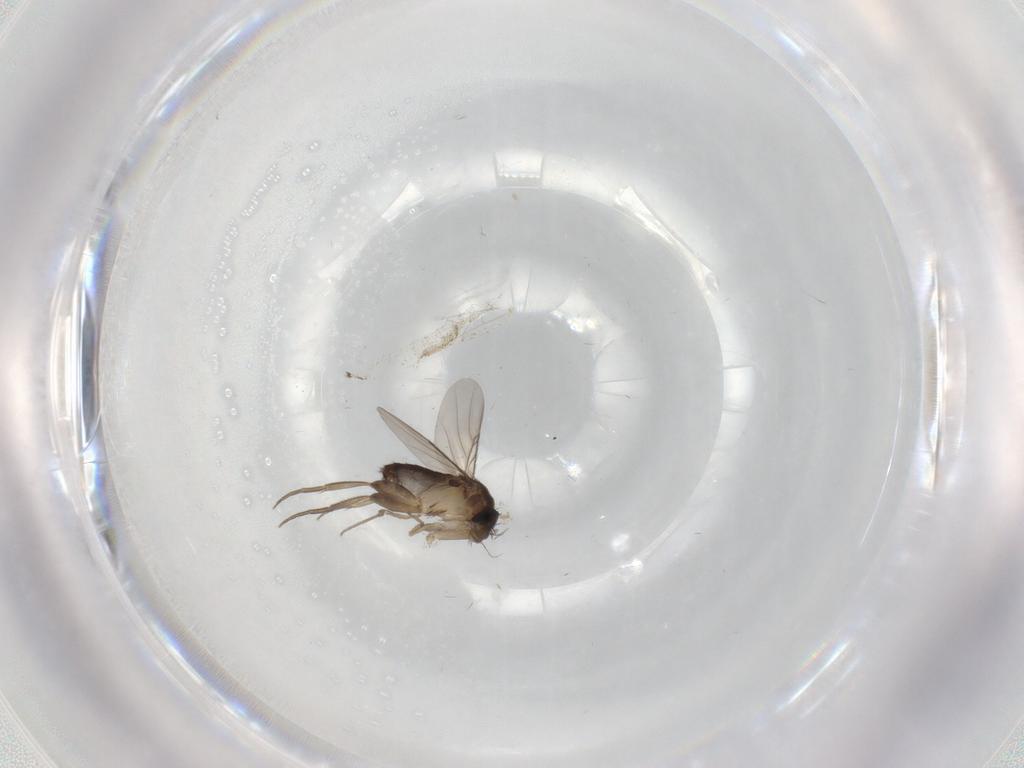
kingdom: Animalia
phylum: Arthropoda
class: Insecta
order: Diptera
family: Phoridae
